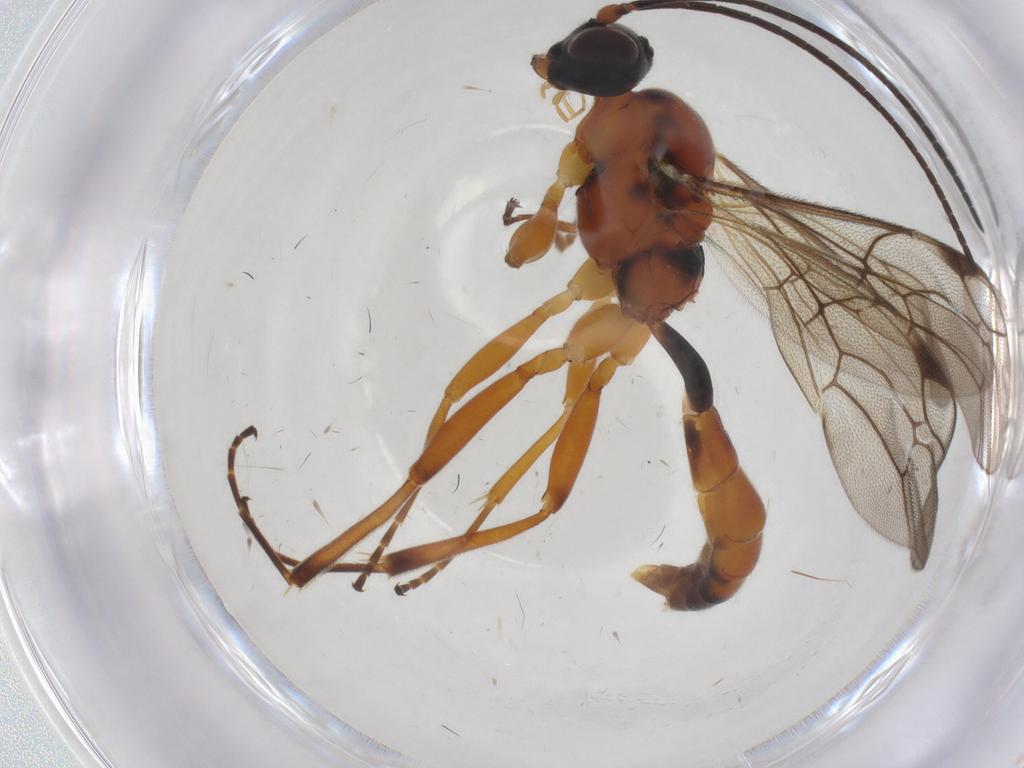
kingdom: Animalia
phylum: Arthropoda
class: Insecta
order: Hymenoptera
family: Ichneumonidae
